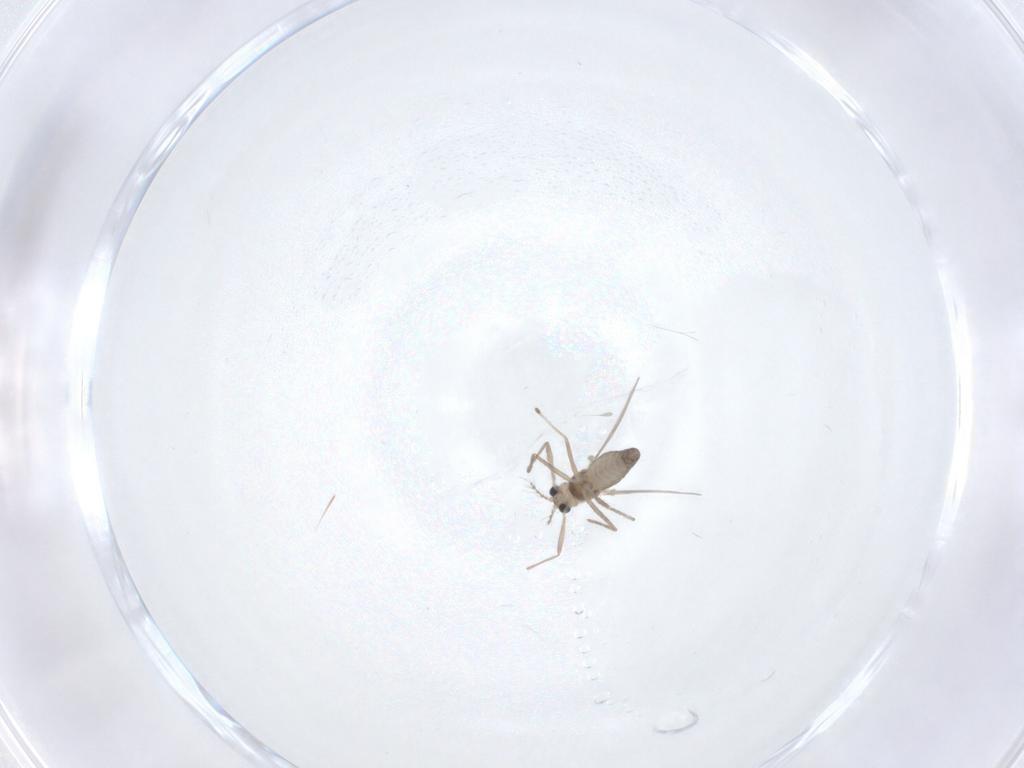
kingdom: Animalia
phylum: Arthropoda
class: Insecta
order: Diptera
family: Chironomidae
